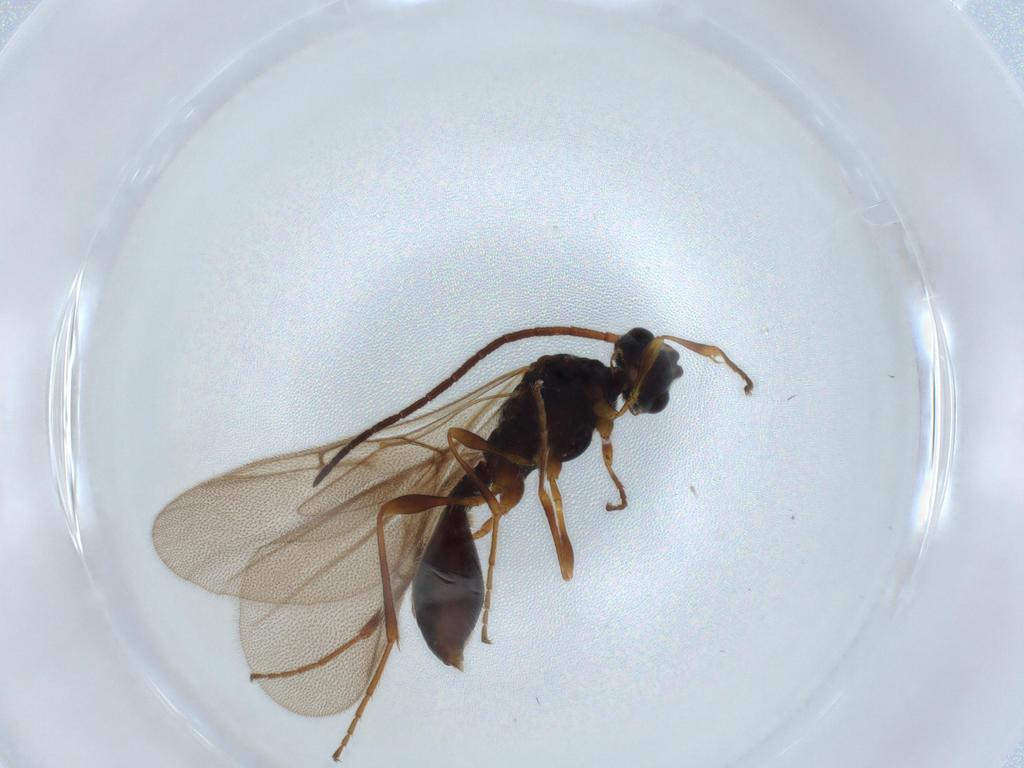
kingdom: Animalia
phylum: Arthropoda
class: Insecta
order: Hymenoptera
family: Diapriidae
